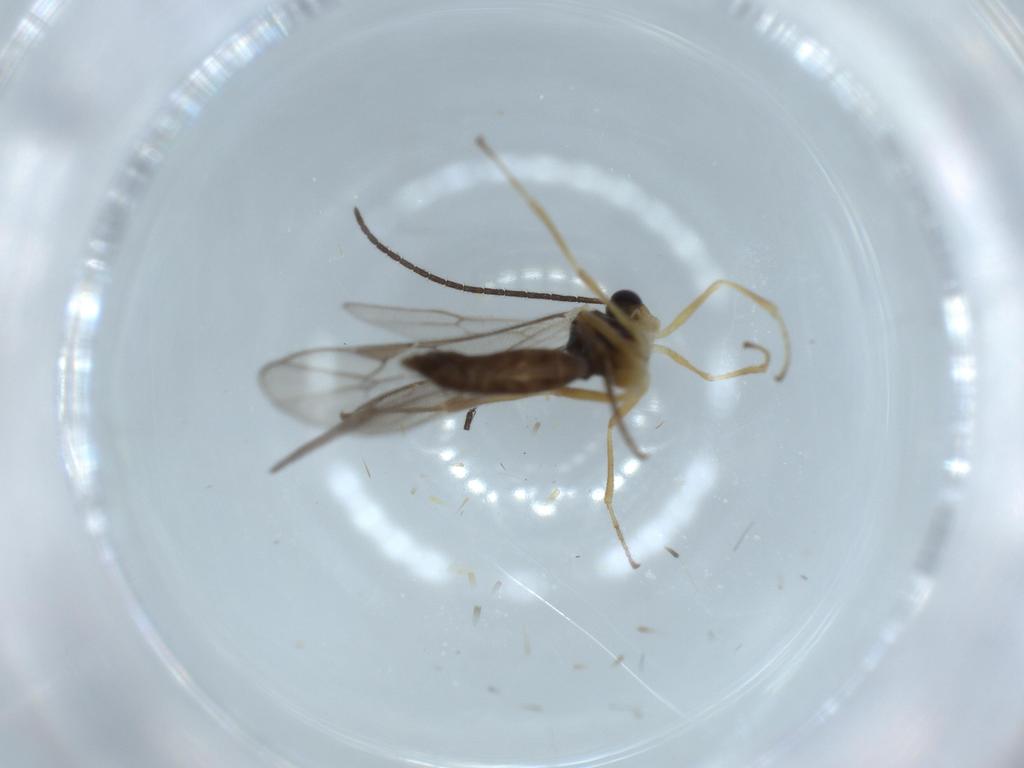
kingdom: Animalia
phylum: Arthropoda
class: Insecta
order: Hymenoptera
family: Ichneumonidae
